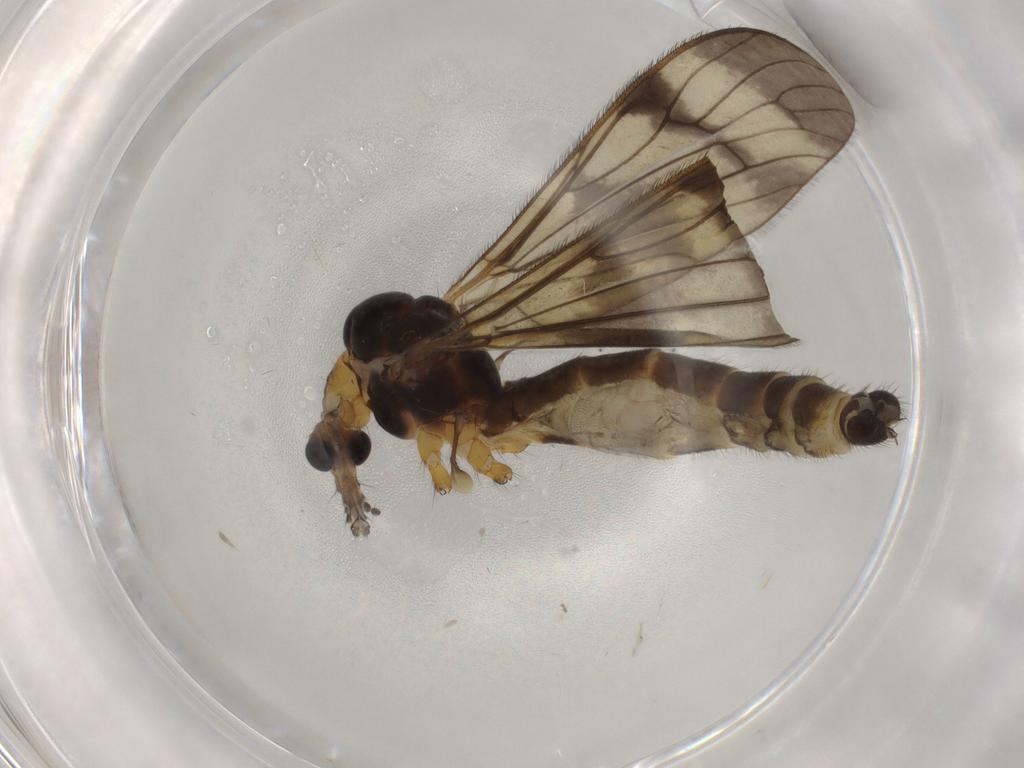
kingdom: Animalia
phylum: Arthropoda
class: Insecta
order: Diptera
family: Limoniidae
